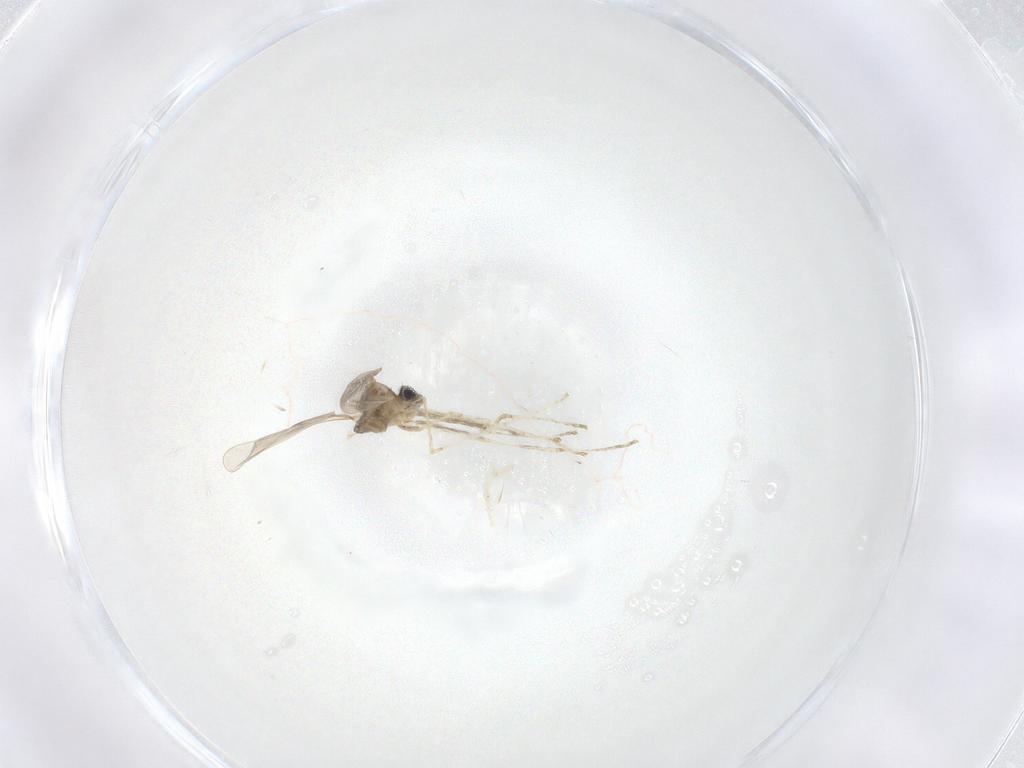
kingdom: Animalia
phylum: Arthropoda
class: Insecta
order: Diptera
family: Cecidomyiidae
